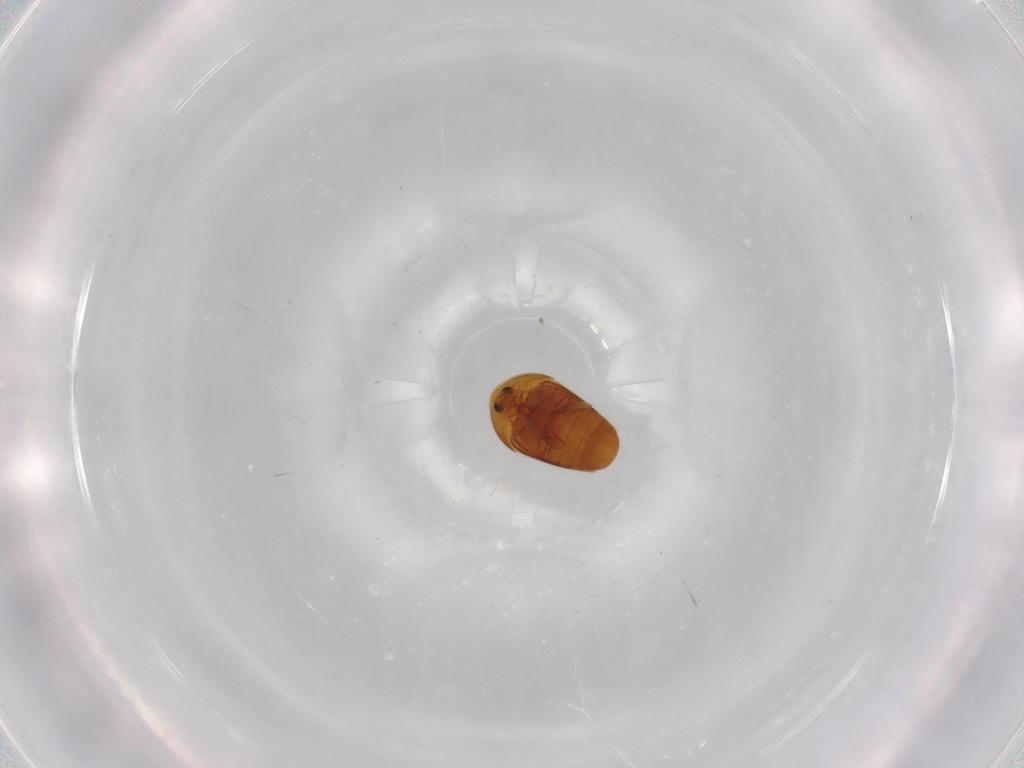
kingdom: Animalia
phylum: Arthropoda
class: Insecta
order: Coleoptera
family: Corylophidae
